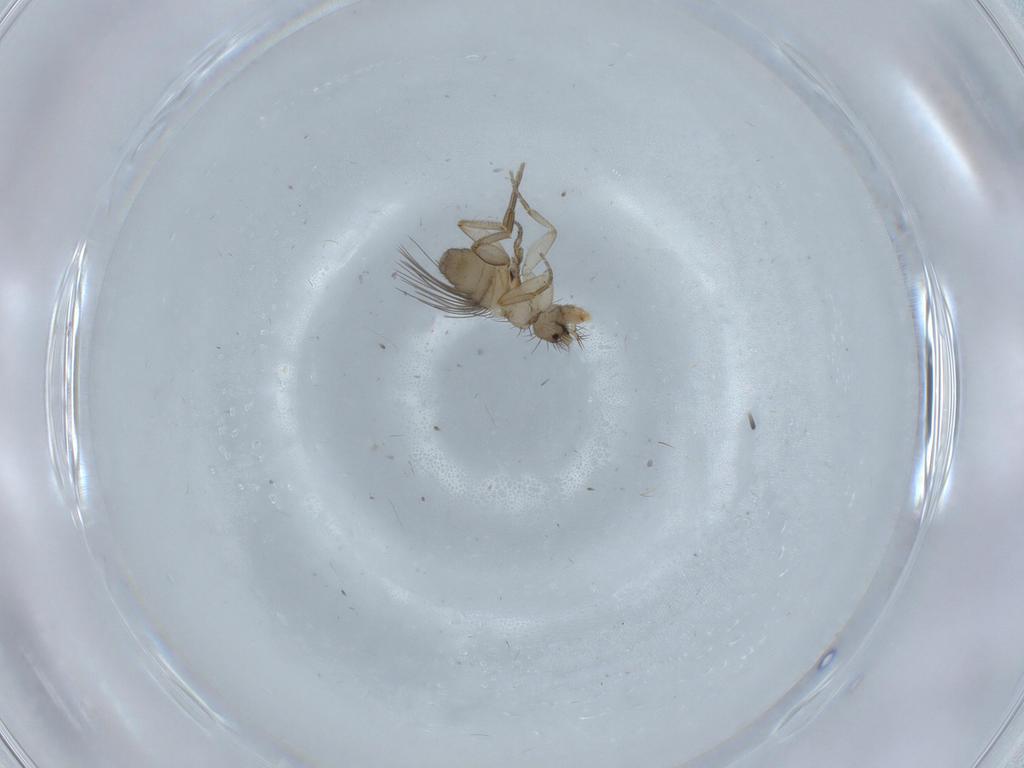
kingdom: Animalia
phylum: Arthropoda
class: Insecta
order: Diptera
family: Phoridae
